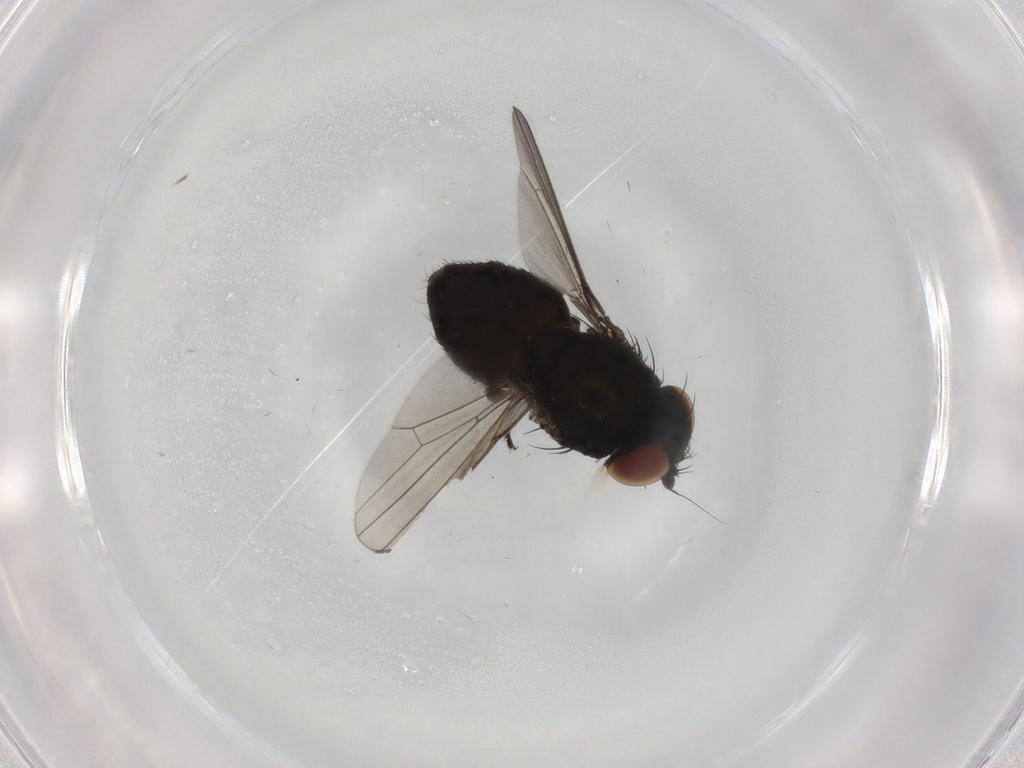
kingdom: Animalia
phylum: Arthropoda
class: Insecta
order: Diptera
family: Milichiidae
